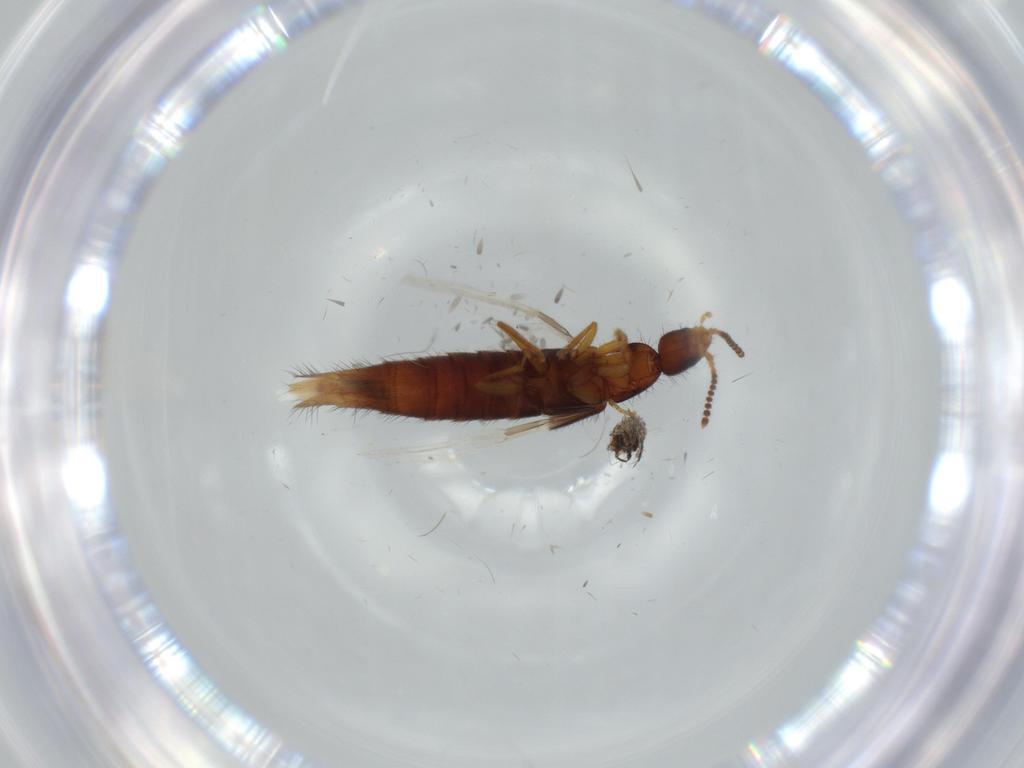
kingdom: Animalia
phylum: Arthropoda
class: Insecta
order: Coleoptera
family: Staphylinidae
